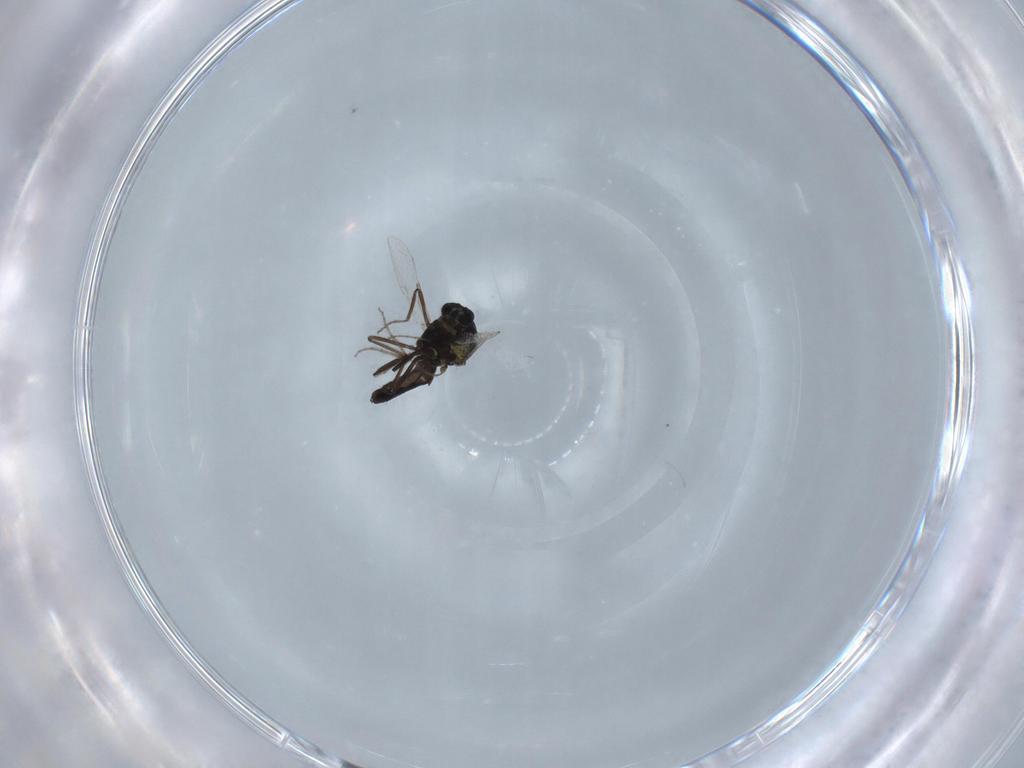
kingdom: Animalia
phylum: Arthropoda
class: Insecta
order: Diptera
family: Ceratopogonidae
